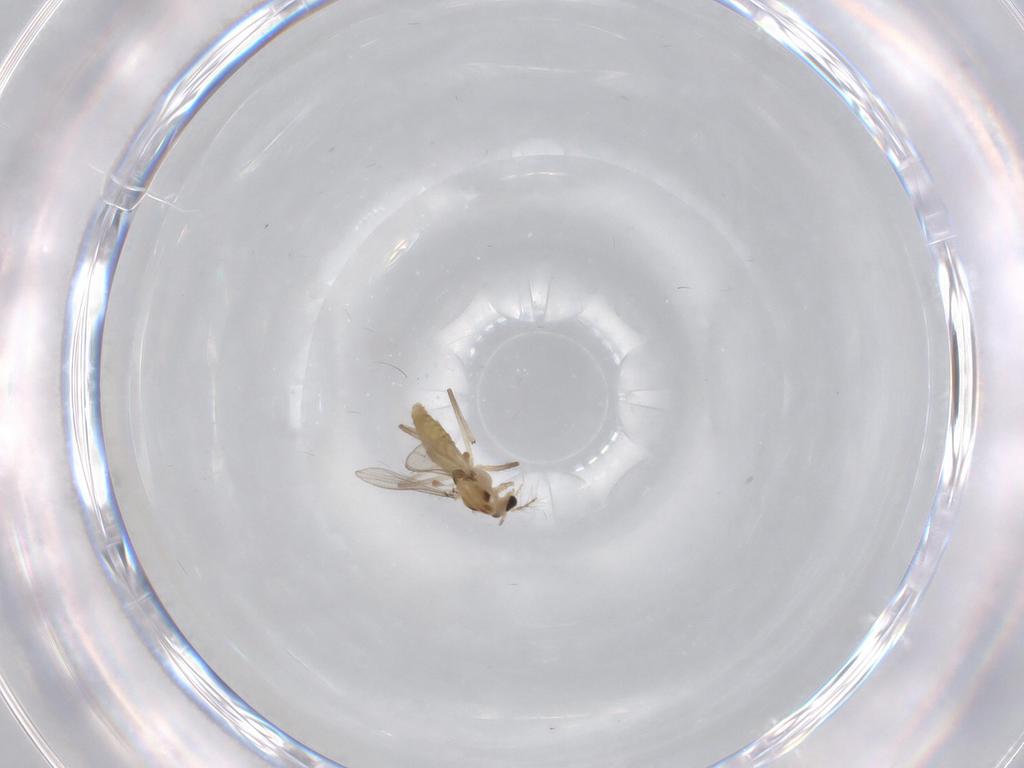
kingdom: Animalia
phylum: Arthropoda
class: Insecta
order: Diptera
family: Chironomidae
